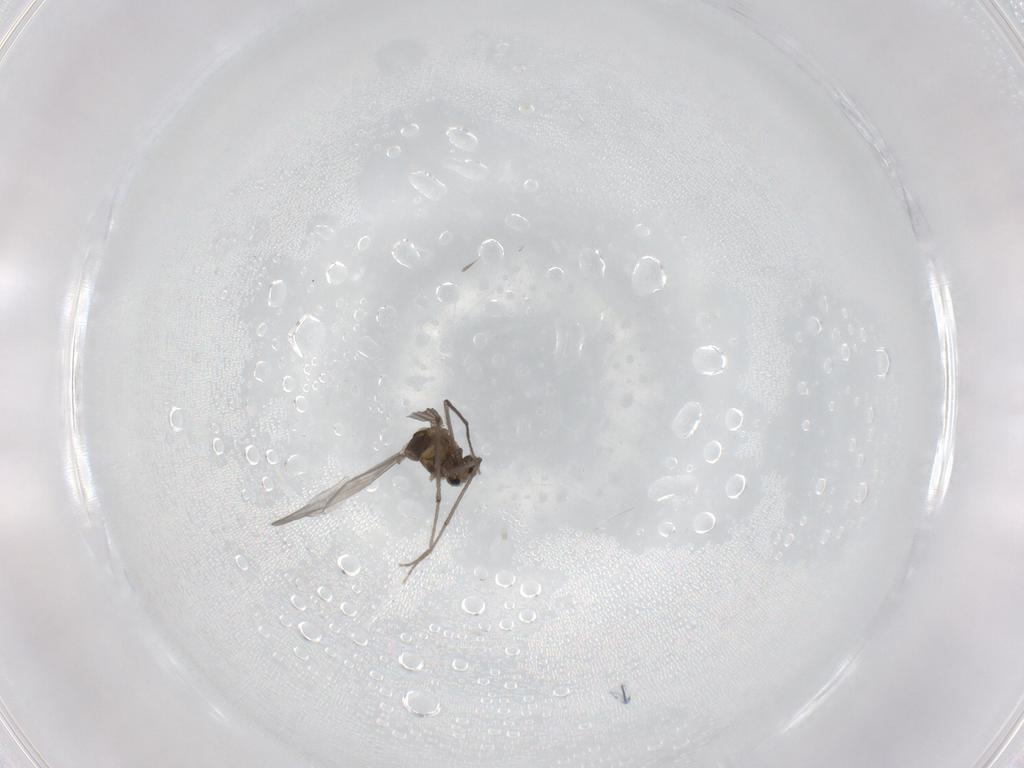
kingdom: Animalia
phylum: Arthropoda
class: Insecta
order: Diptera
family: Chironomidae
